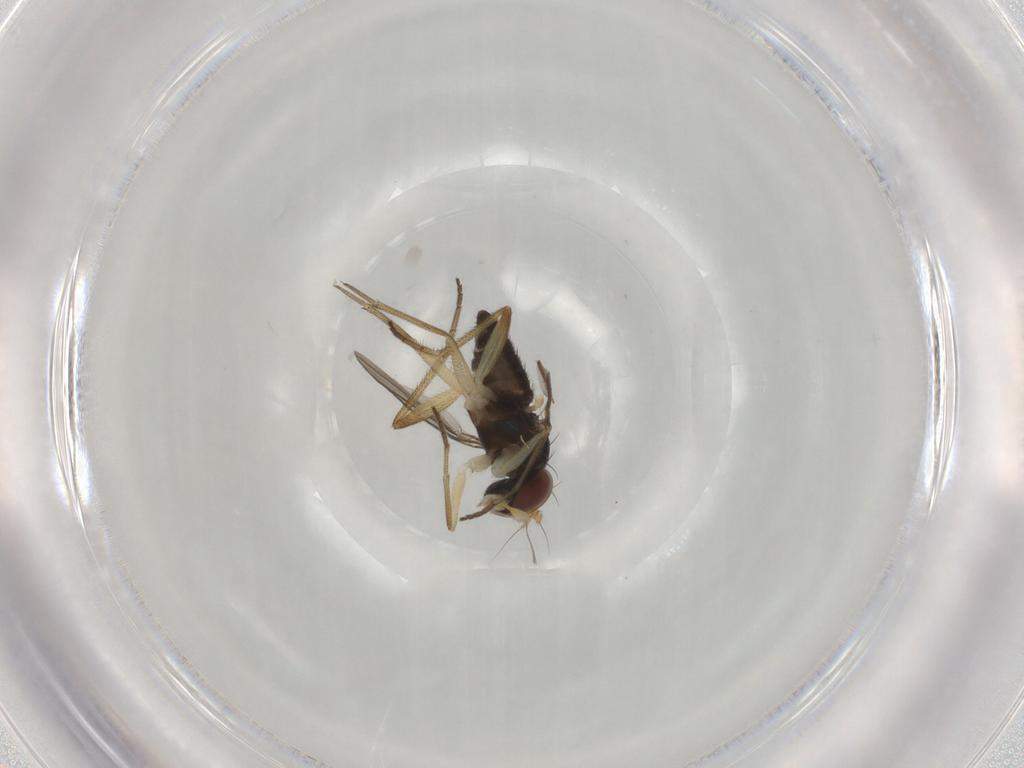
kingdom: Animalia
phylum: Arthropoda
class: Insecta
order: Diptera
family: Dolichopodidae
